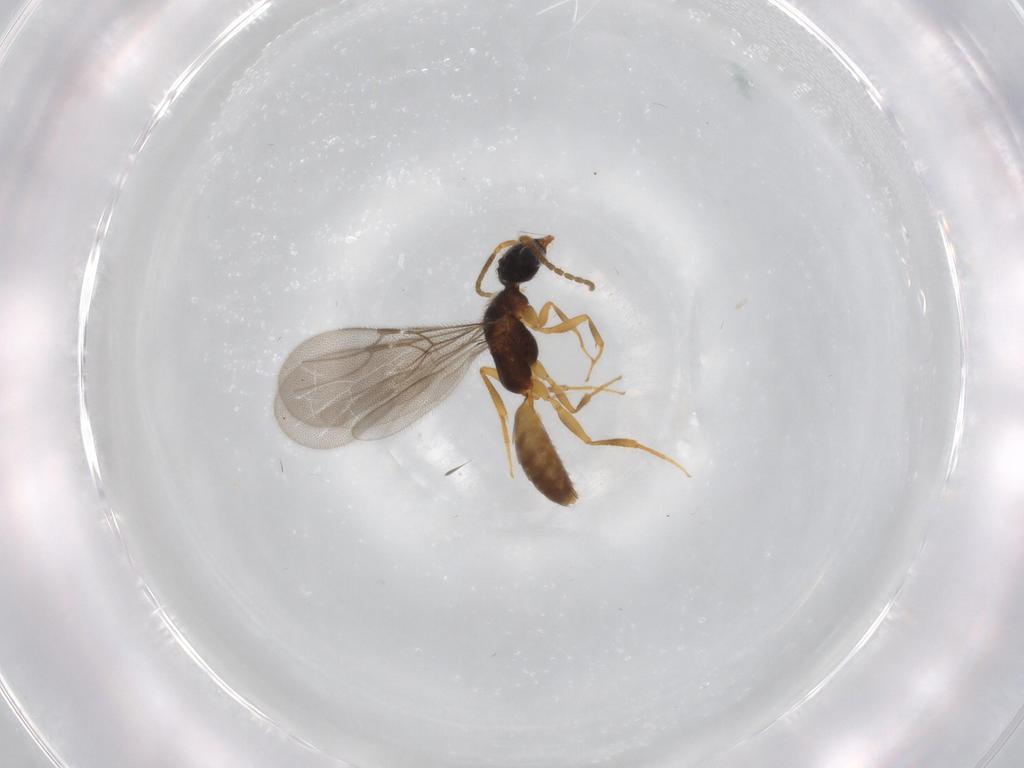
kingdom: Animalia
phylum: Arthropoda
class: Insecta
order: Hymenoptera
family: Bethylidae
